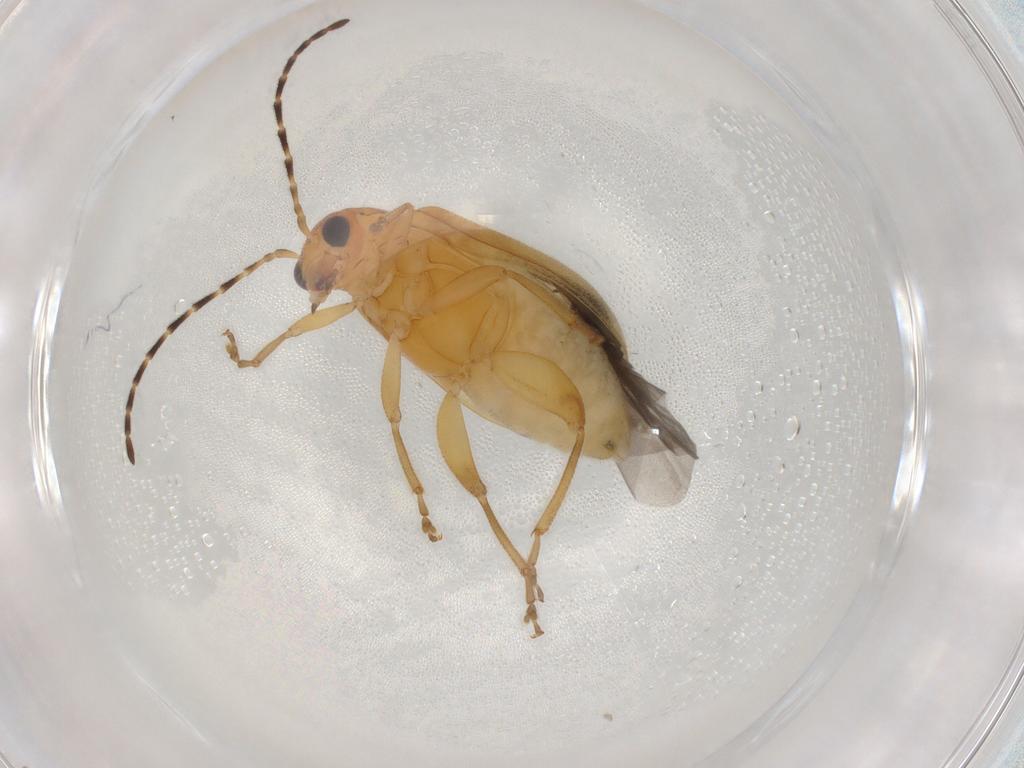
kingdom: Animalia
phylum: Arthropoda
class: Insecta
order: Coleoptera
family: Chrysomelidae
